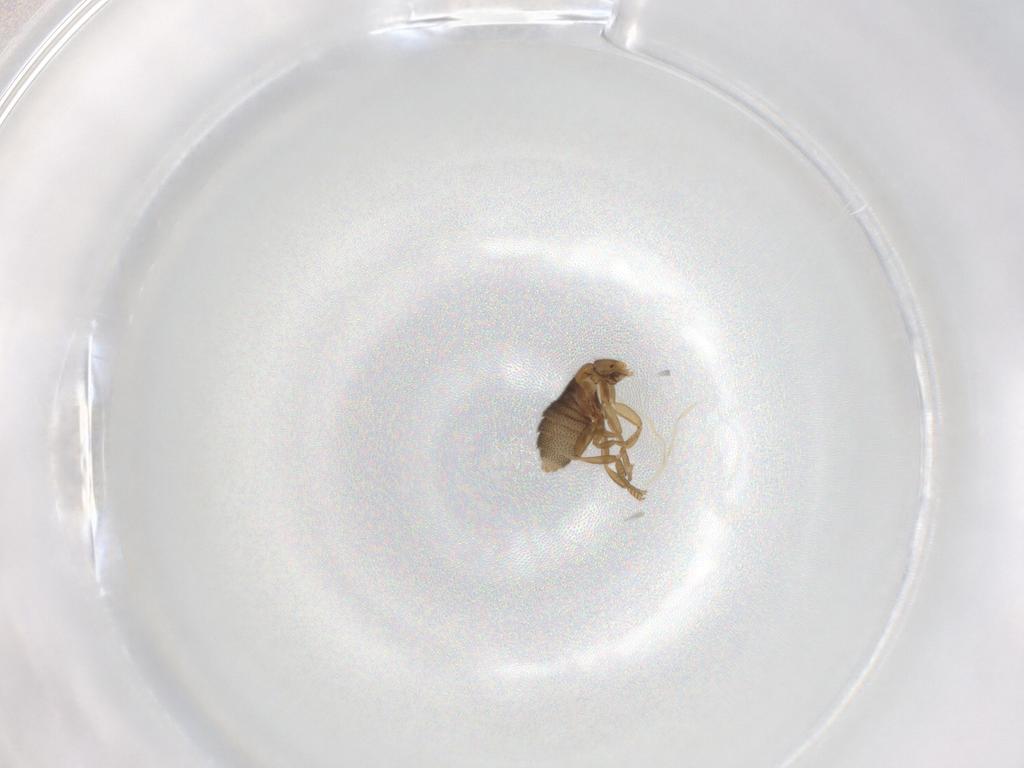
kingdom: Animalia
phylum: Arthropoda
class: Insecta
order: Diptera
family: Phoridae
